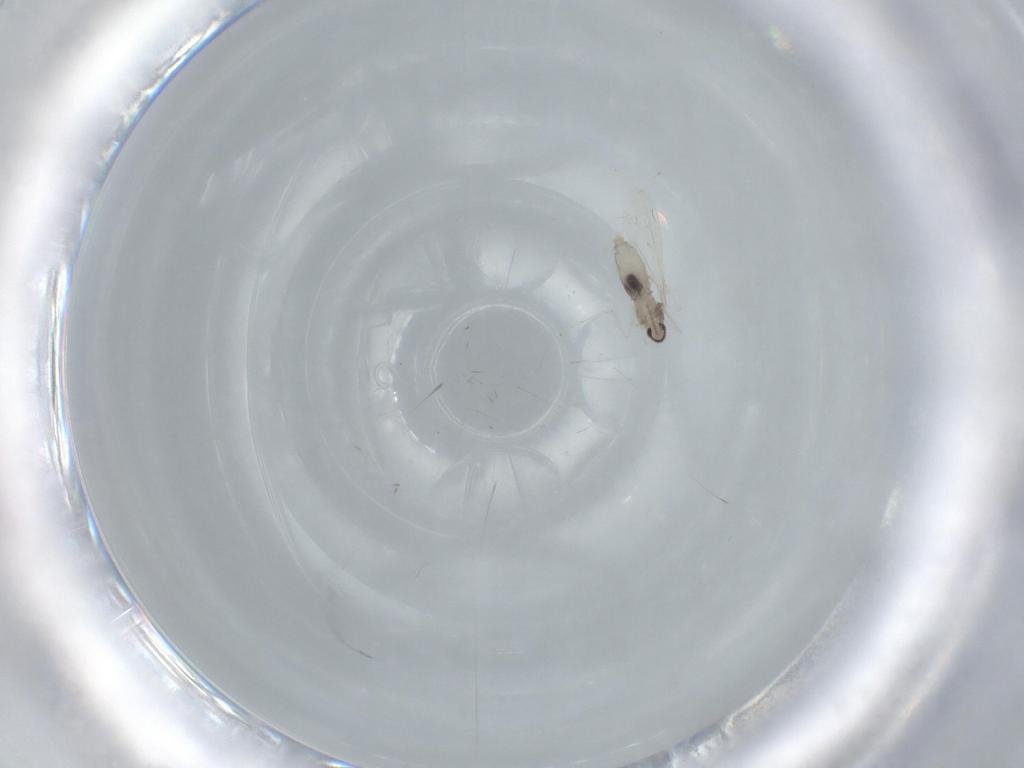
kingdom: Animalia
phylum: Arthropoda
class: Insecta
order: Diptera
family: Cecidomyiidae
